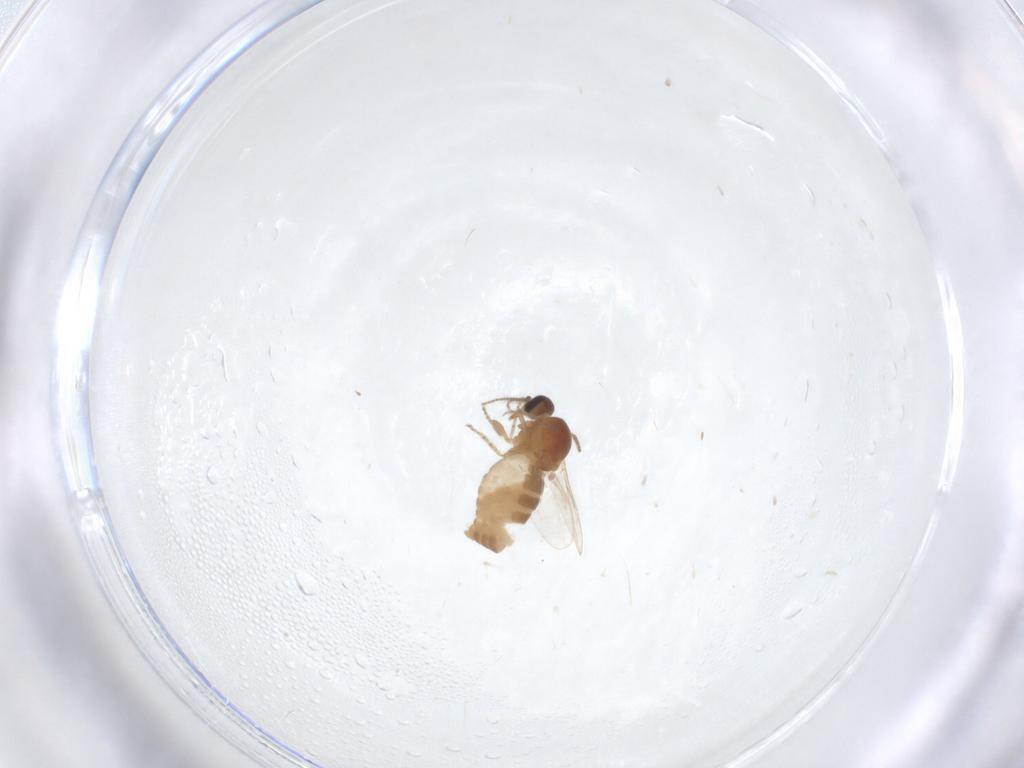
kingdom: Animalia
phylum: Arthropoda
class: Insecta
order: Diptera
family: Ceratopogonidae
